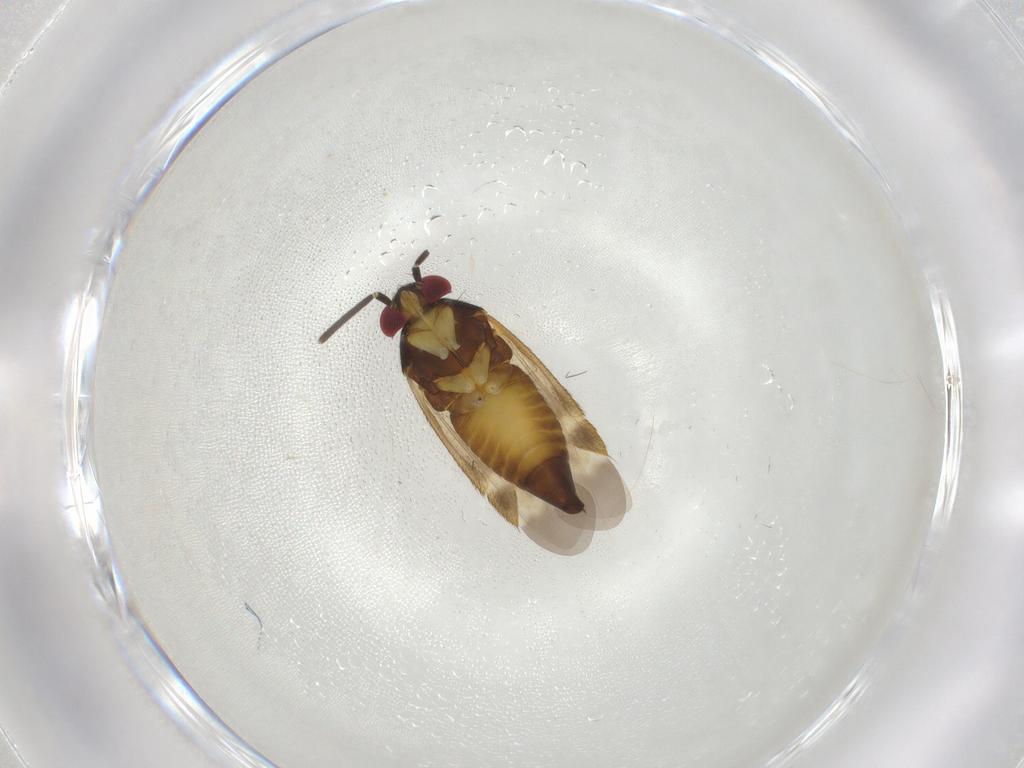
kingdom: Animalia
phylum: Arthropoda
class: Insecta
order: Hemiptera
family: Miridae
